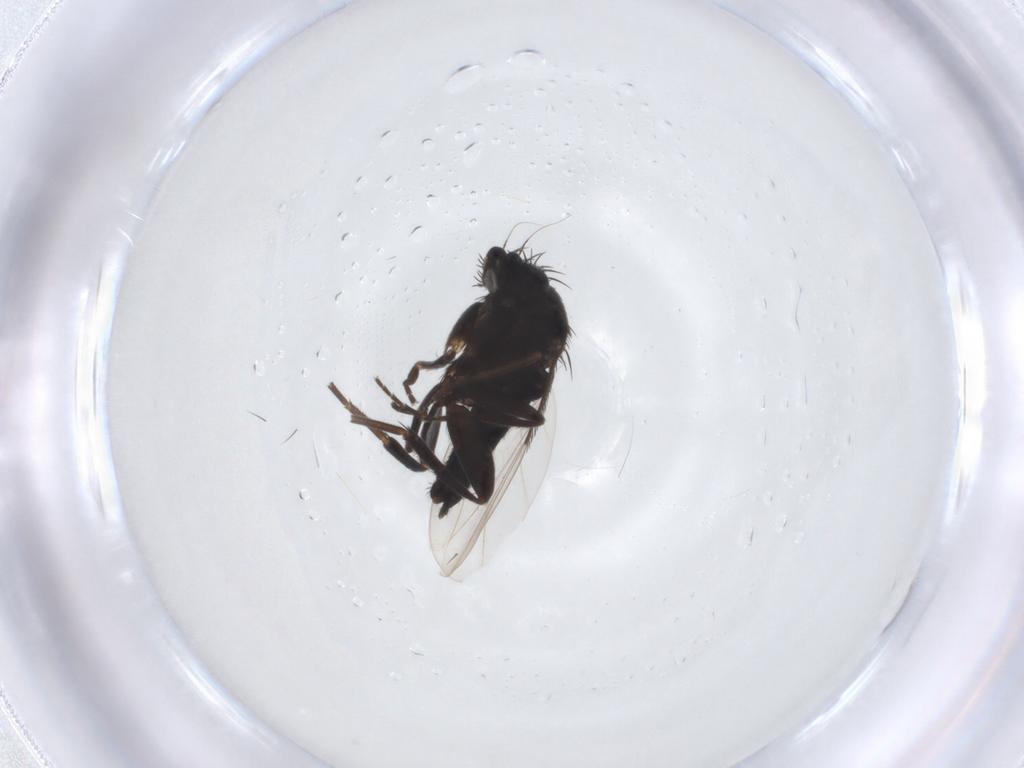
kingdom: Animalia
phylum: Arthropoda
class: Insecta
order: Diptera
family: Phoridae
